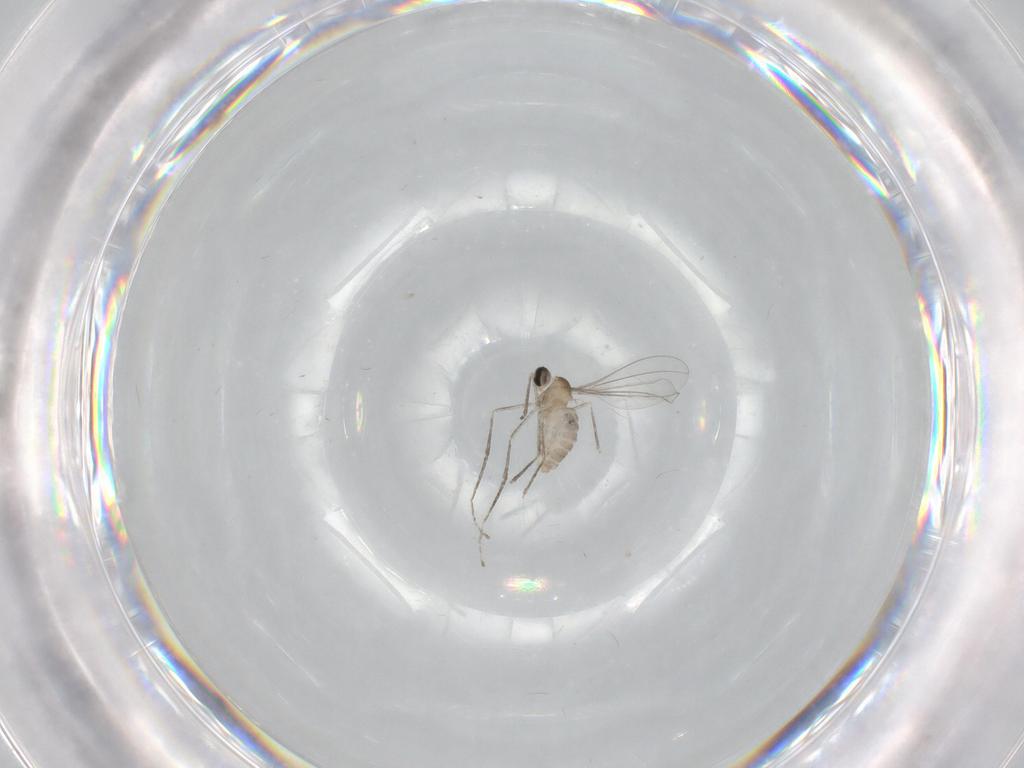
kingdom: Animalia
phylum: Arthropoda
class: Insecta
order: Diptera
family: Cecidomyiidae
